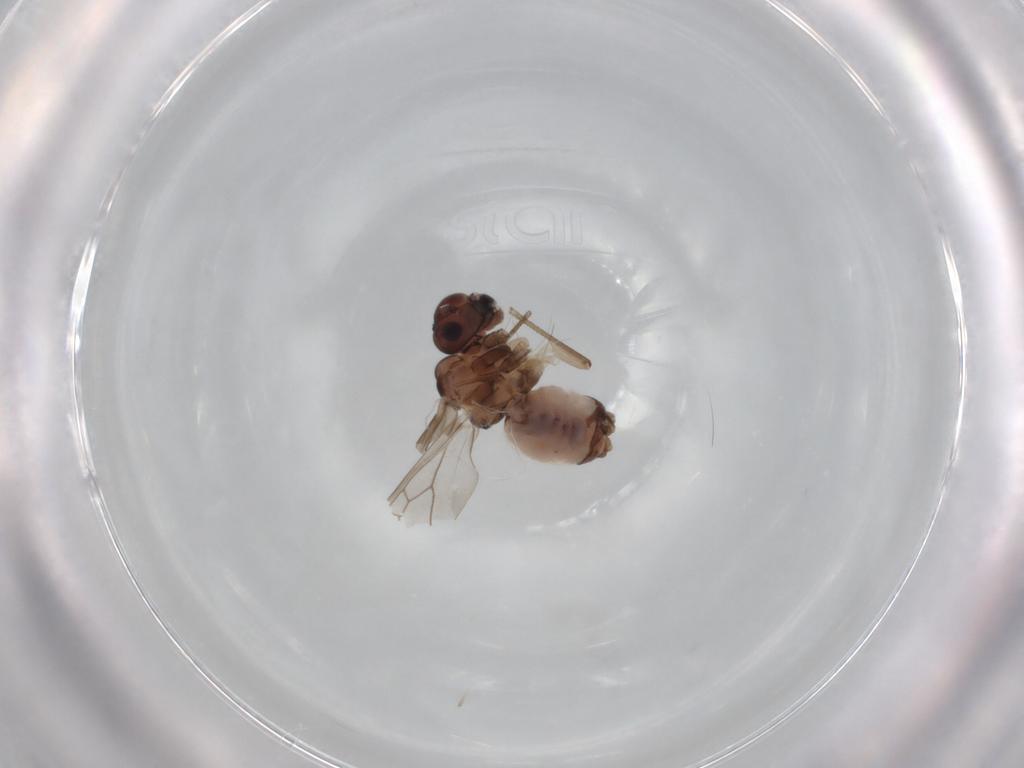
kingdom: Animalia
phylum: Arthropoda
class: Insecta
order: Psocodea
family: Peripsocidae
